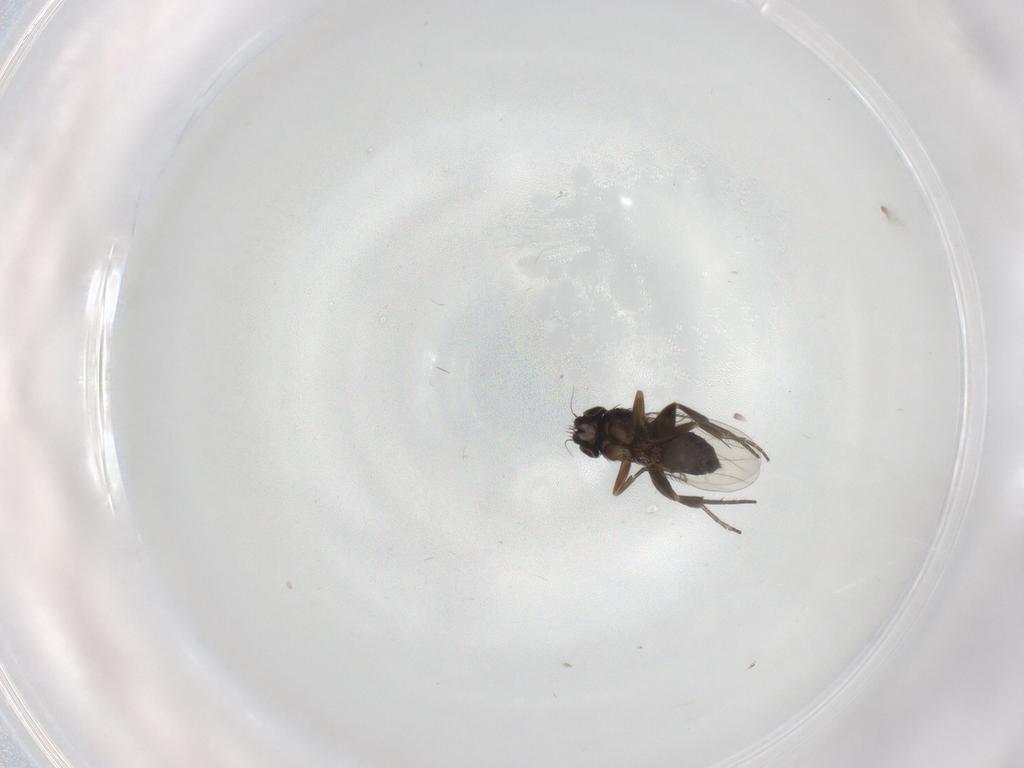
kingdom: Animalia
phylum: Arthropoda
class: Insecta
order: Diptera
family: Phoridae
